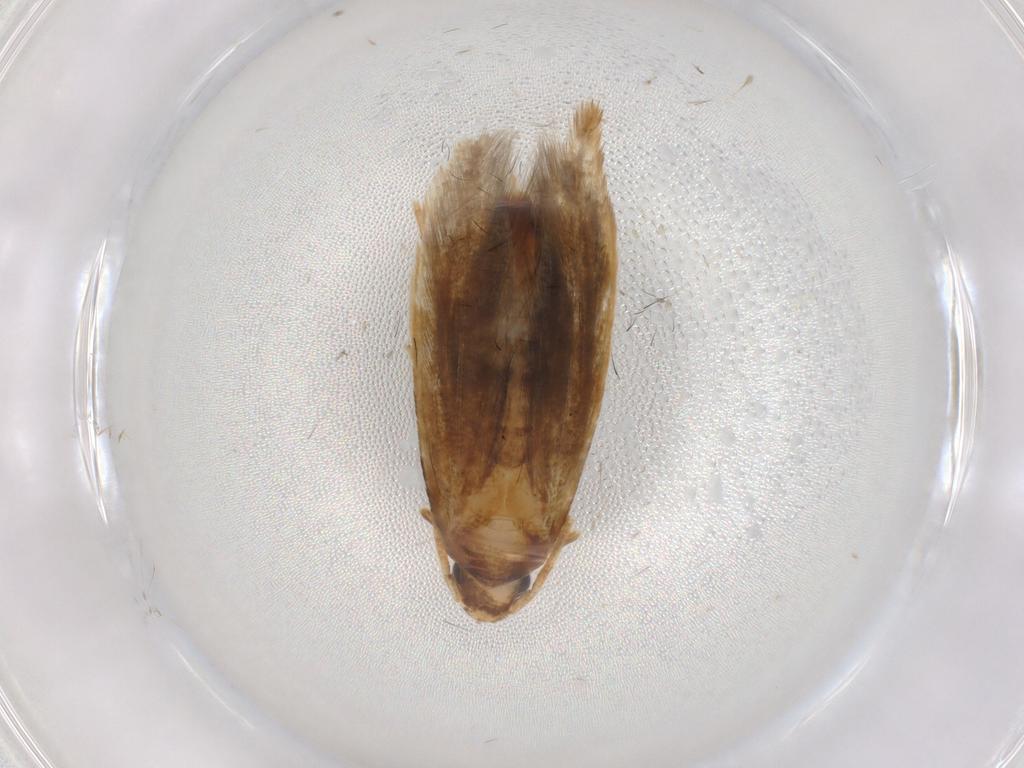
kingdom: Animalia
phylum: Arthropoda
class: Insecta
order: Lepidoptera
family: Tineidae
